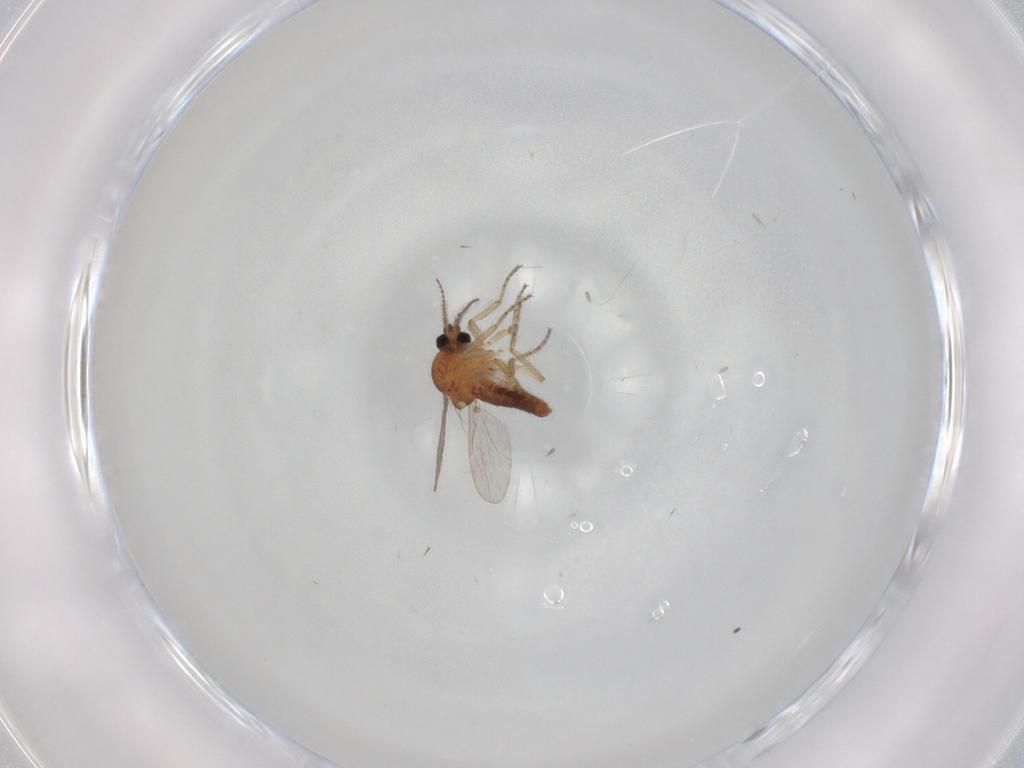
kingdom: Animalia
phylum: Arthropoda
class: Insecta
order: Diptera
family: Ceratopogonidae
